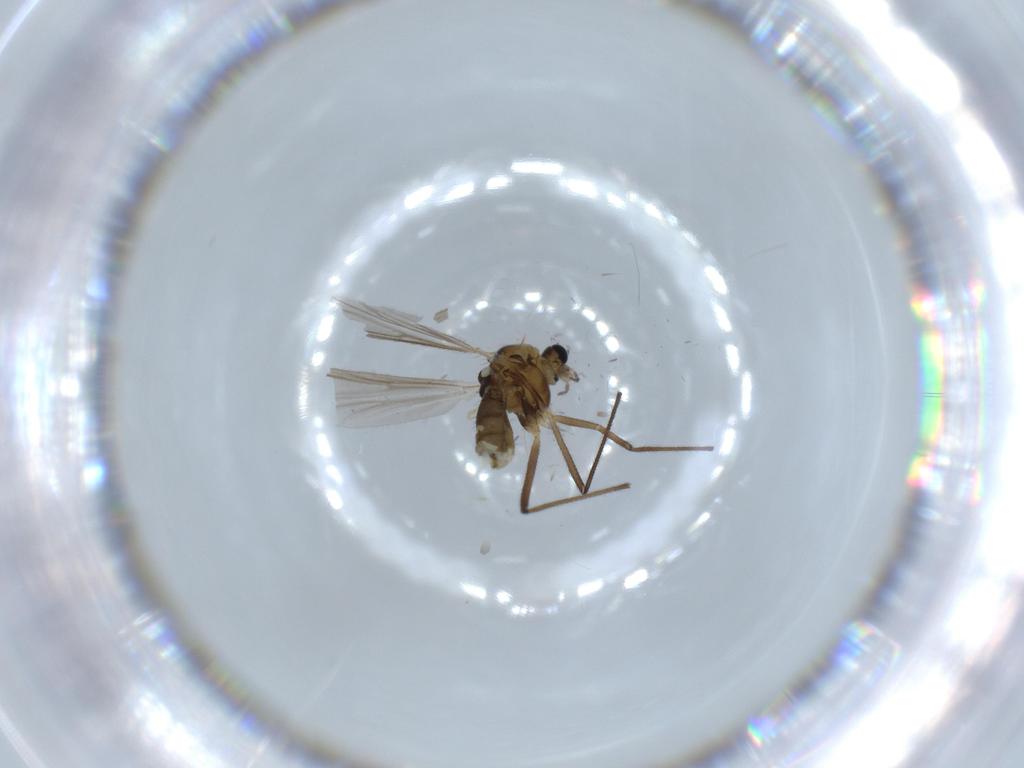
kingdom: Animalia
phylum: Arthropoda
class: Insecta
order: Diptera
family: Chironomidae
